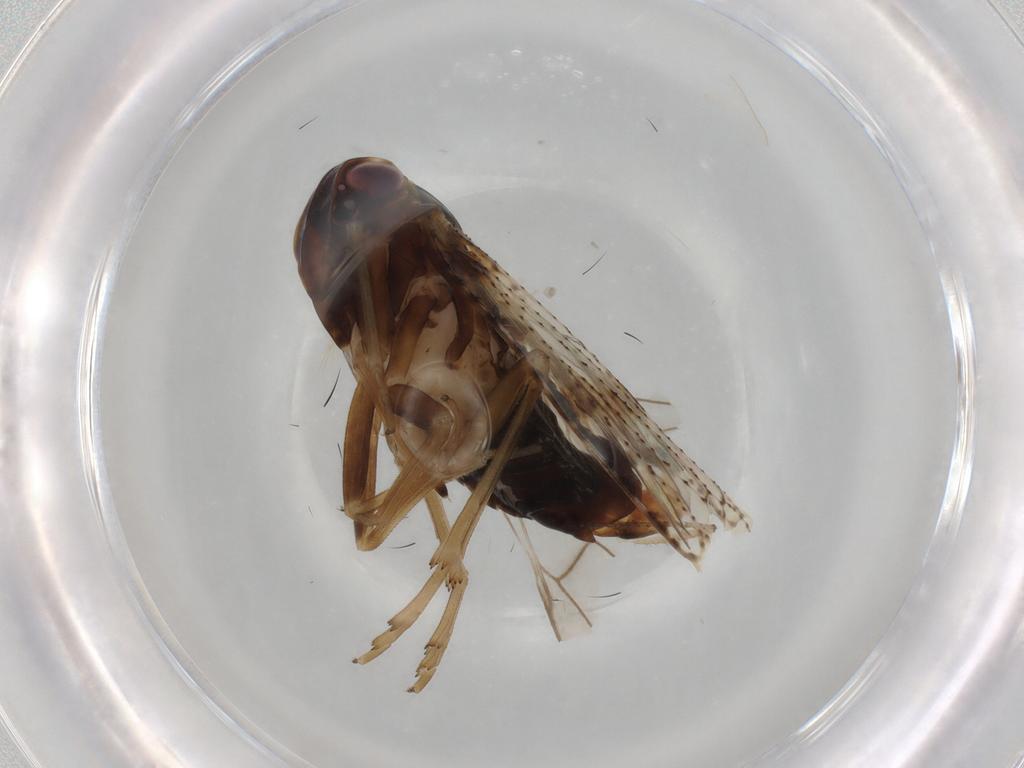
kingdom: Animalia
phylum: Arthropoda
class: Insecta
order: Hemiptera
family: Cixiidae
